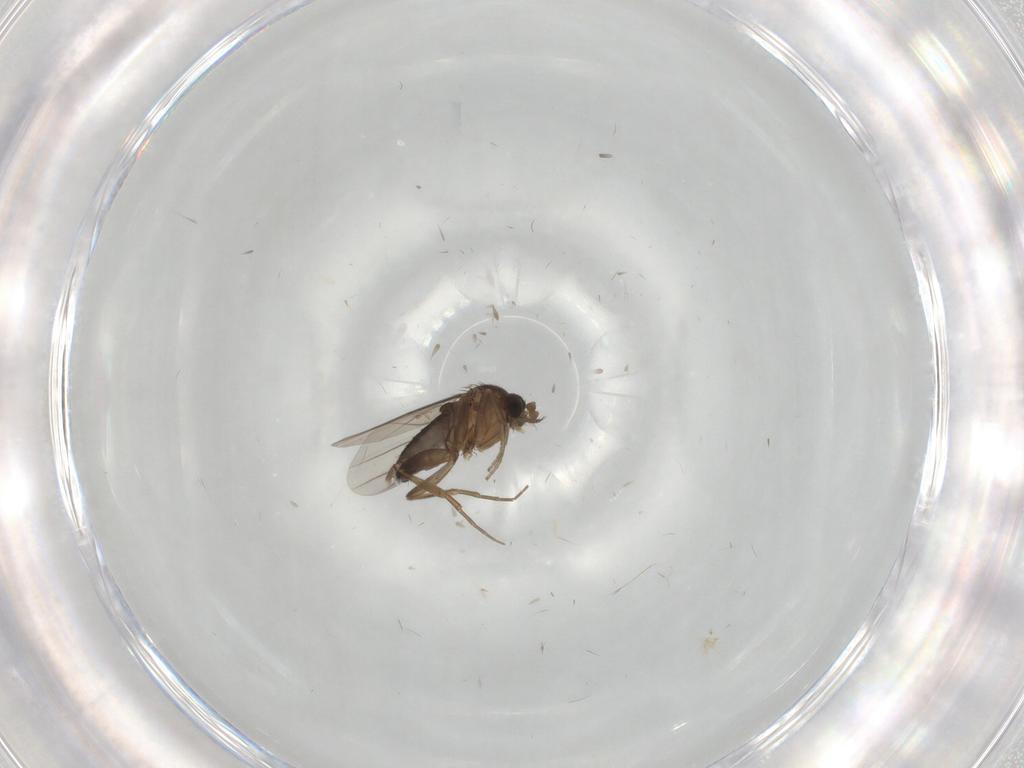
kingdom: Animalia
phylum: Arthropoda
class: Insecta
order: Diptera
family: Phoridae
